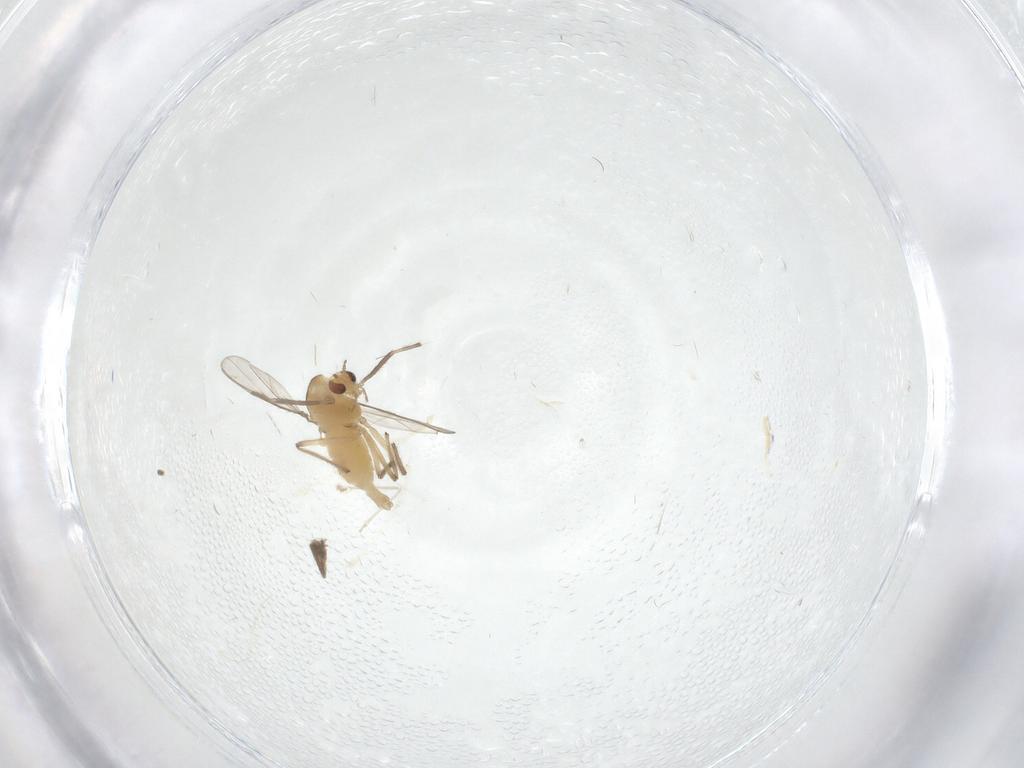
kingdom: Animalia
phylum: Arthropoda
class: Insecta
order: Diptera
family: Chironomidae
